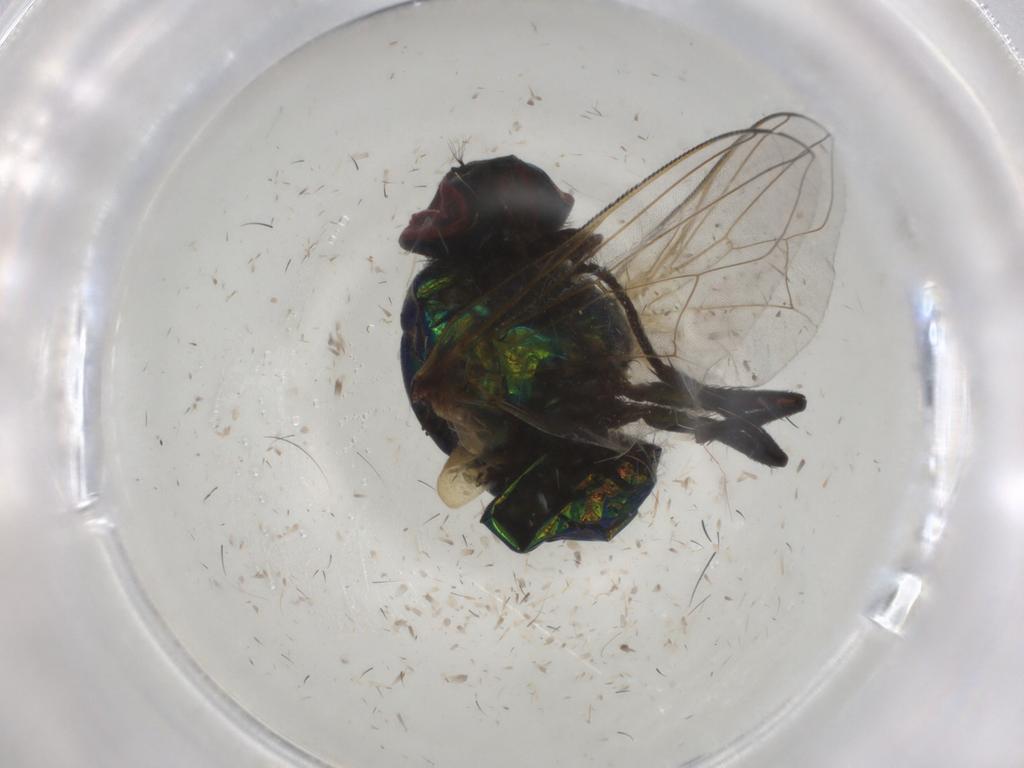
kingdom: Animalia
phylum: Arthropoda
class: Insecta
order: Diptera
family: Muscidae
